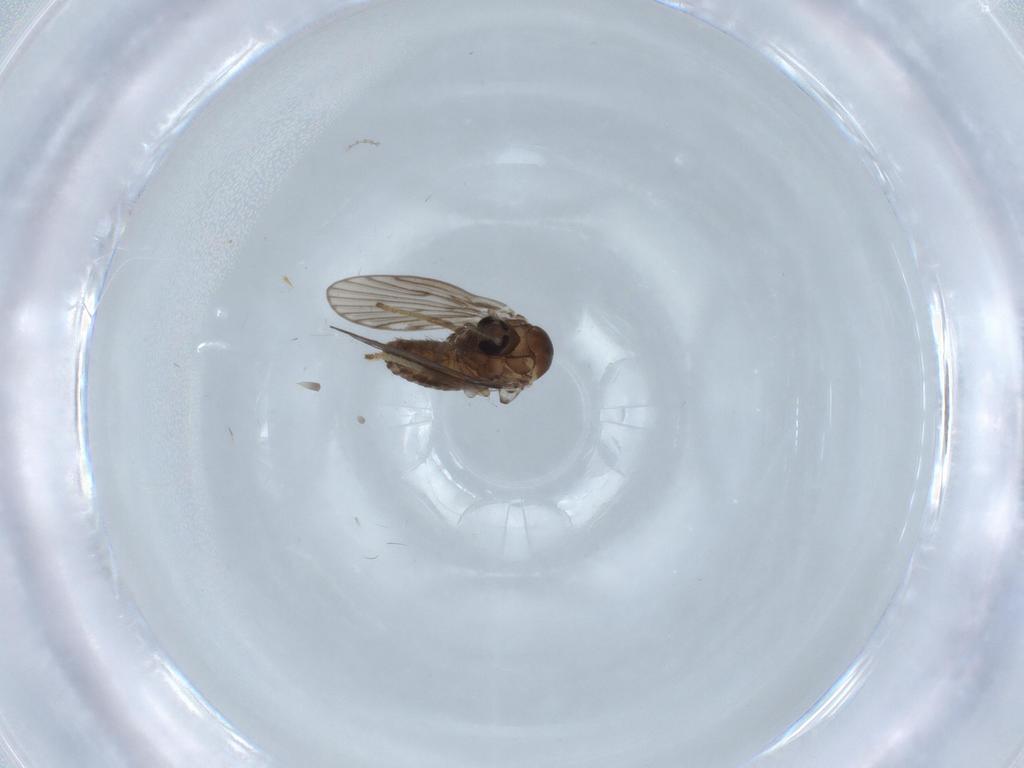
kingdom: Animalia
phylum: Arthropoda
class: Insecta
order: Diptera
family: Psychodidae
